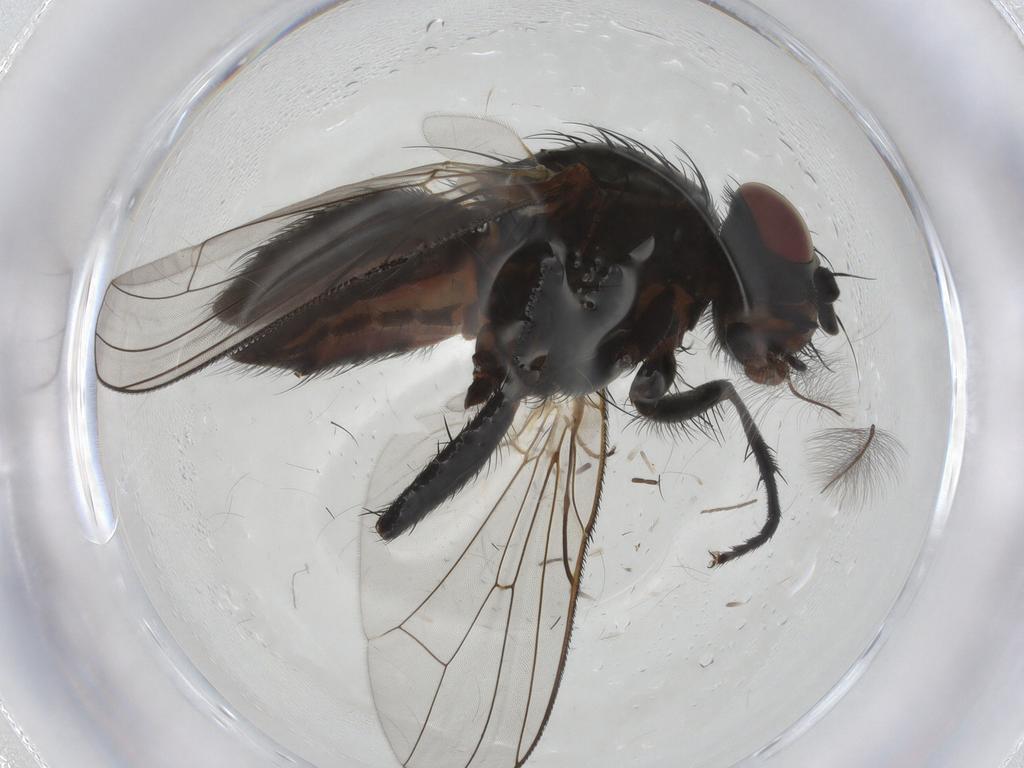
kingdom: Animalia
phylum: Arthropoda
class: Insecta
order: Diptera
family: Anthomyiidae
